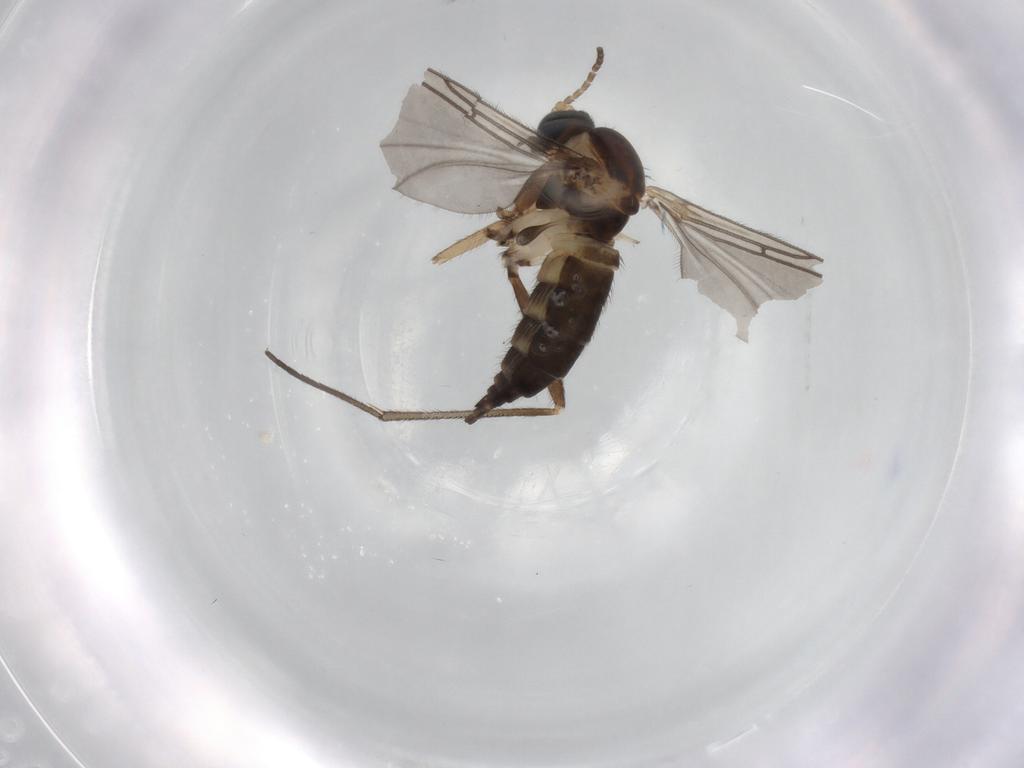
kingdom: Animalia
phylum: Arthropoda
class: Insecta
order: Diptera
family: Sciaridae
